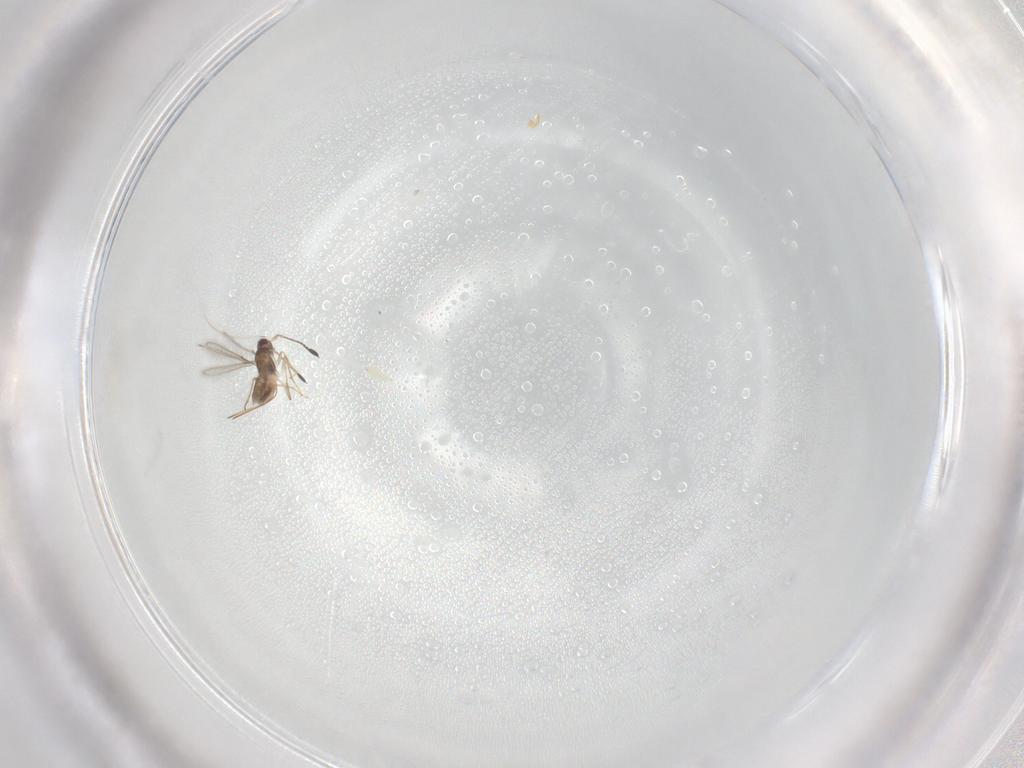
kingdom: Animalia
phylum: Arthropoda
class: Insecta
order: Hymenoptera
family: Mymaridae
